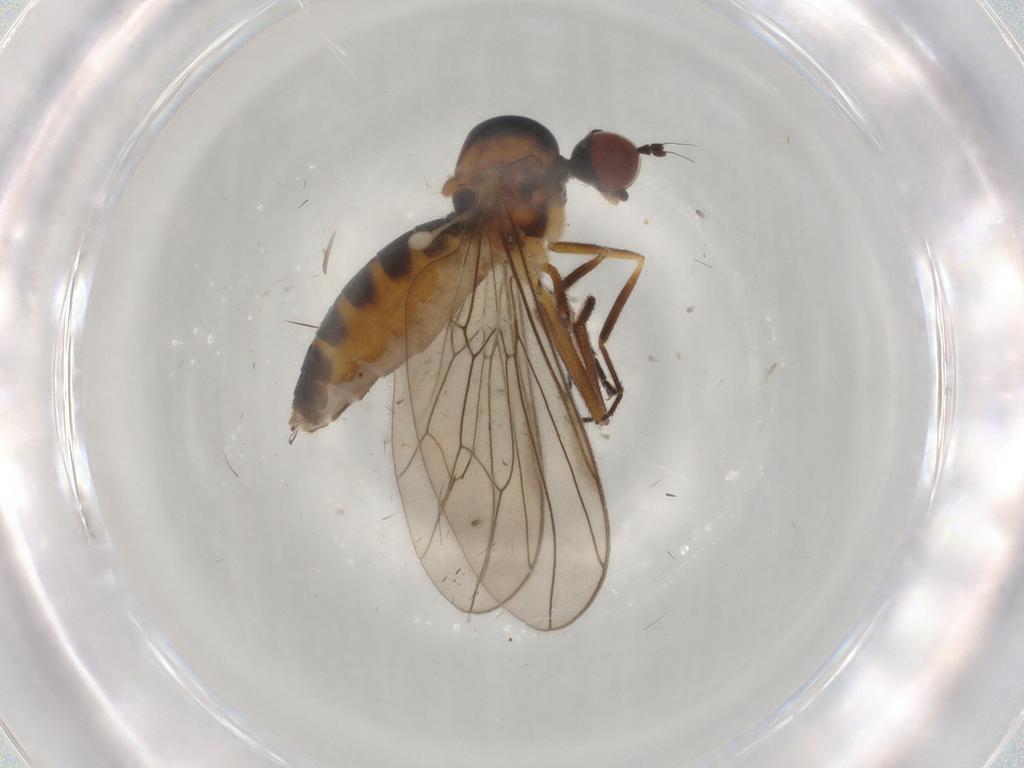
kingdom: Animalia
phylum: Arthropoda
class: Insecta
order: Diptera
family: Hybotidae
